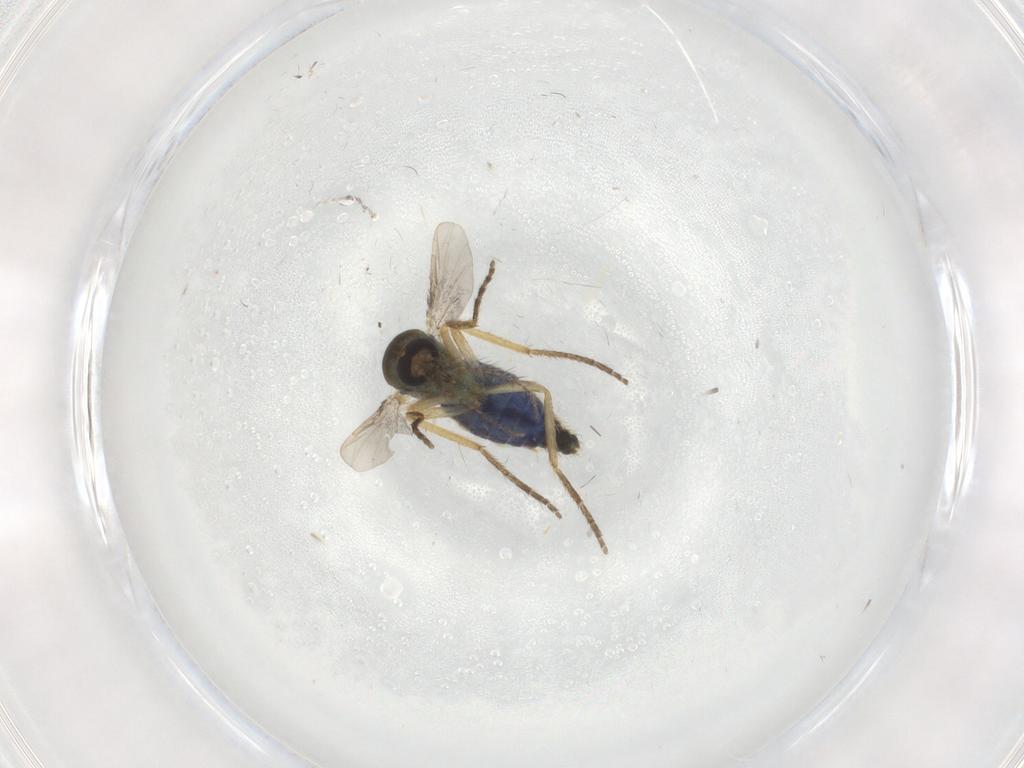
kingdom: Animalia
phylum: Arthropoda
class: Insecta
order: Diptera
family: Ceratopogonidae
